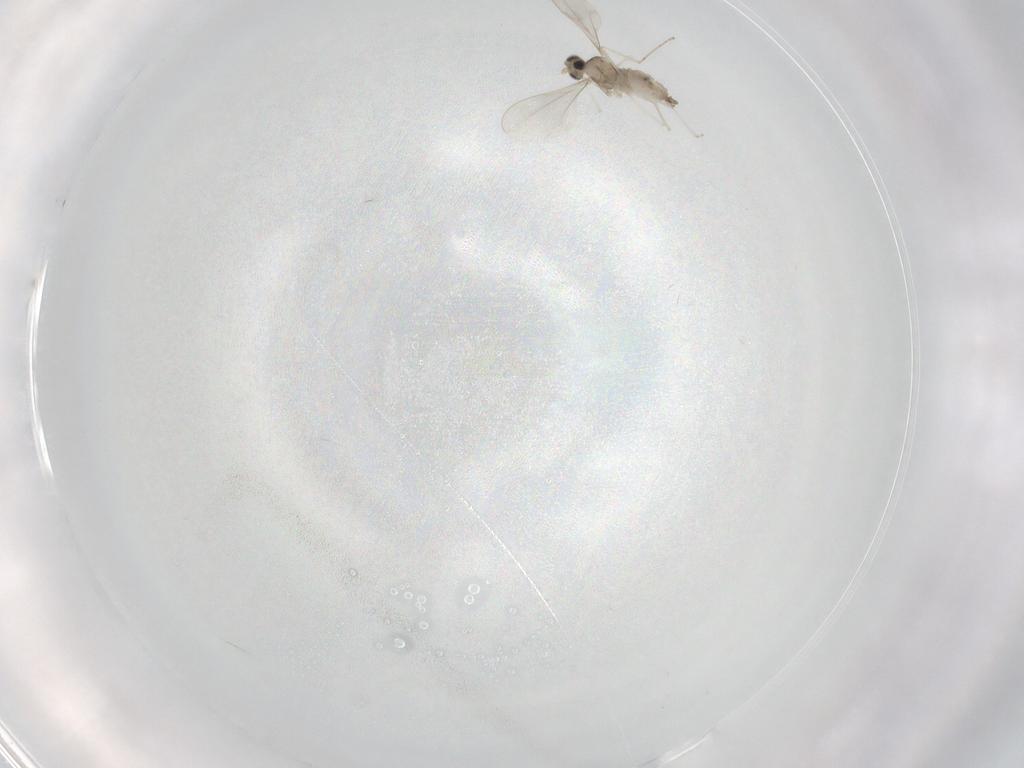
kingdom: Animalia
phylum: Arthropoda
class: Insecta
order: Diptera
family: Cecidomyiidae
